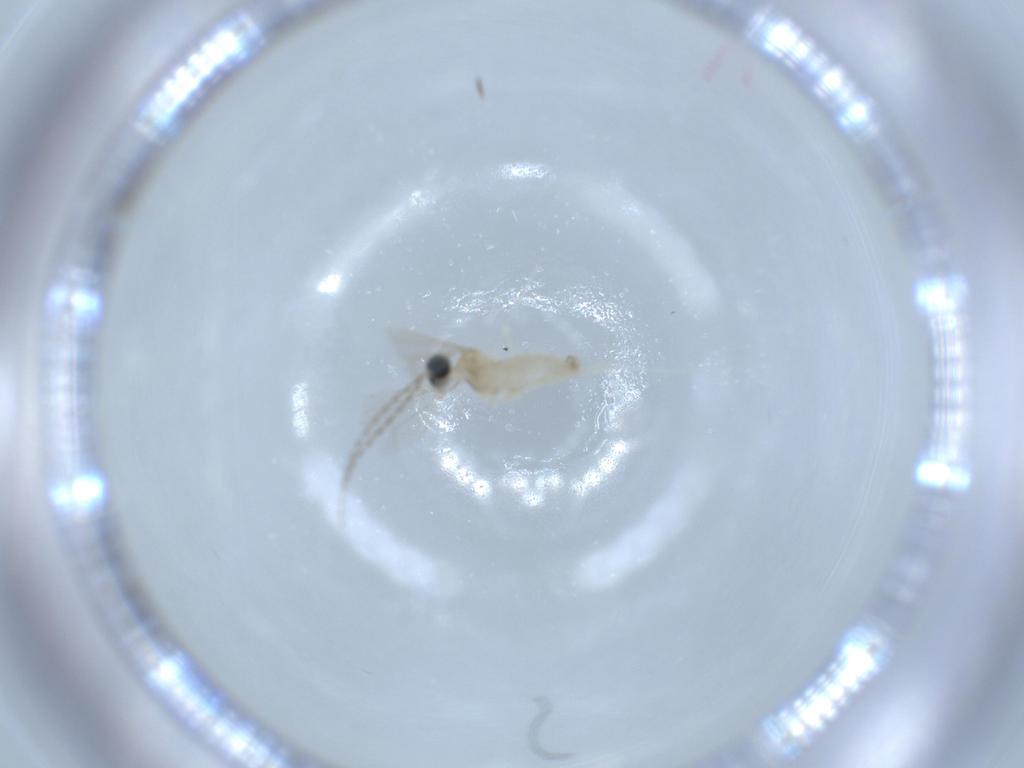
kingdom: Animalia
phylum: Arthropoda
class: Insecta
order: Diptera
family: Cecidomyiidae
